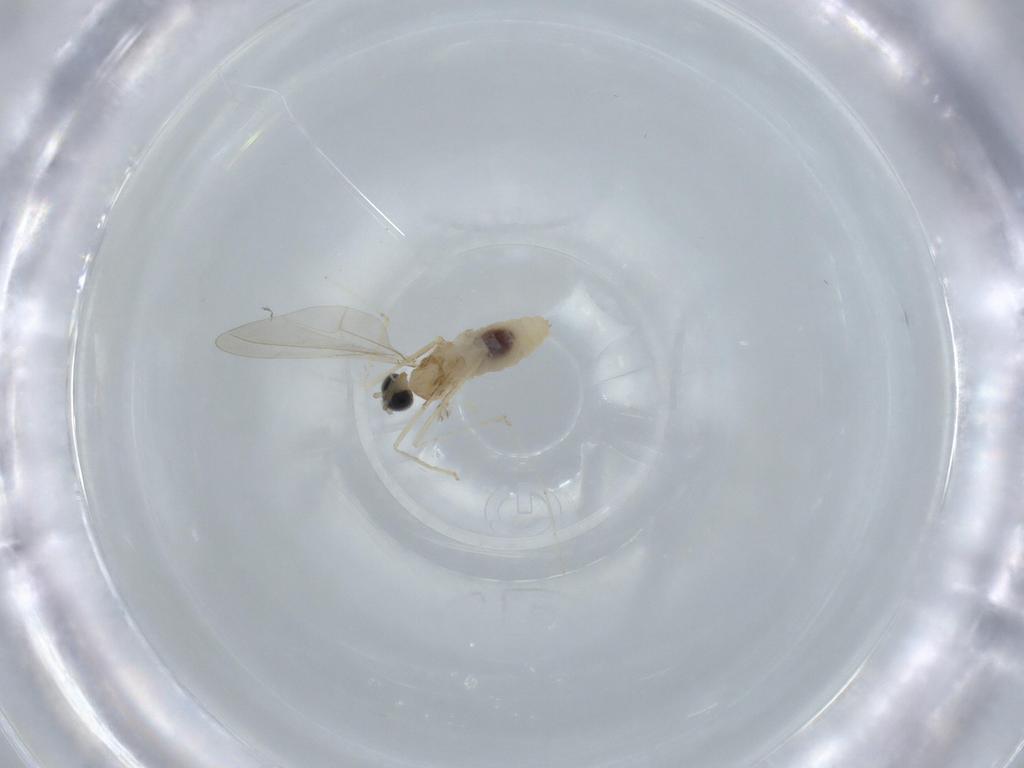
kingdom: Animalia
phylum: Arthropoda
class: Insecta
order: Diptera
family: Cecidomyiidae
